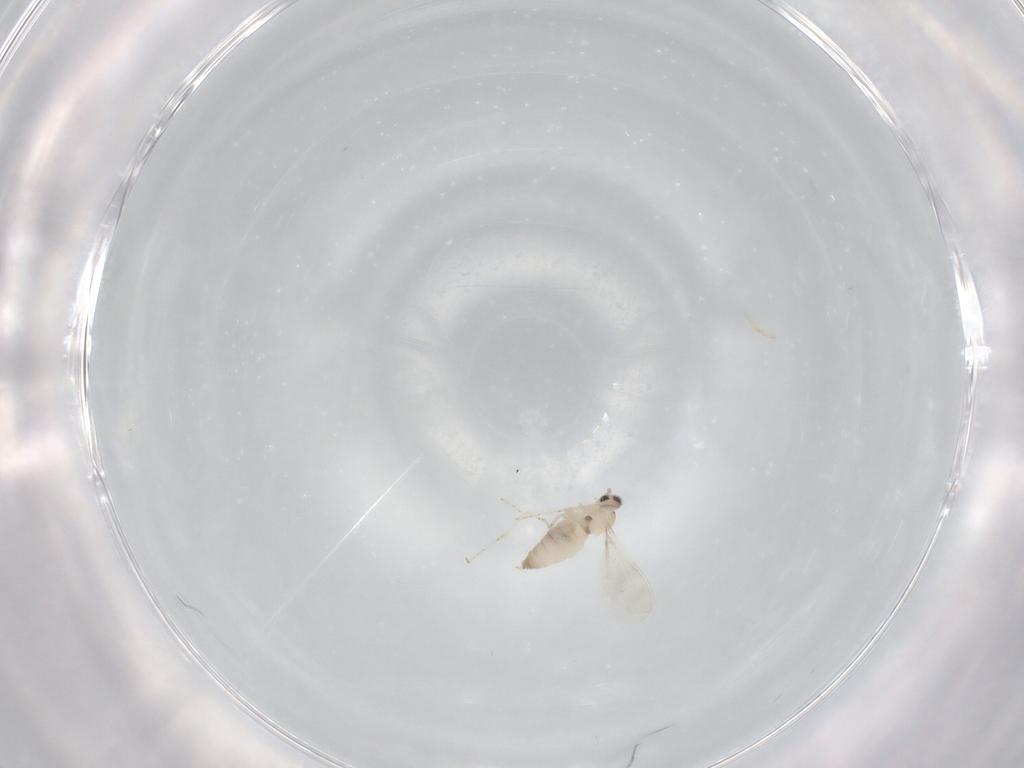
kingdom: Animalia
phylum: Arthropoda
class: Insecta
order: Diptera
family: Cecidomyiidae
